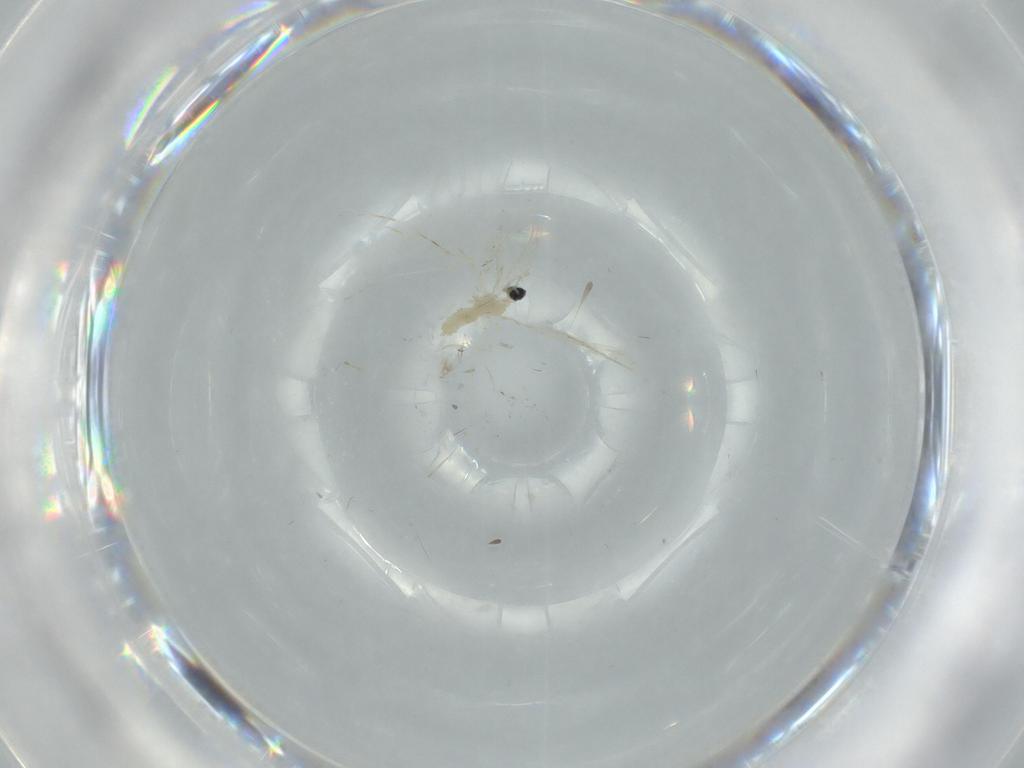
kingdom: Animalia
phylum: Arthropoda
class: Insecta
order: Diptera
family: Cecidomyiidae
